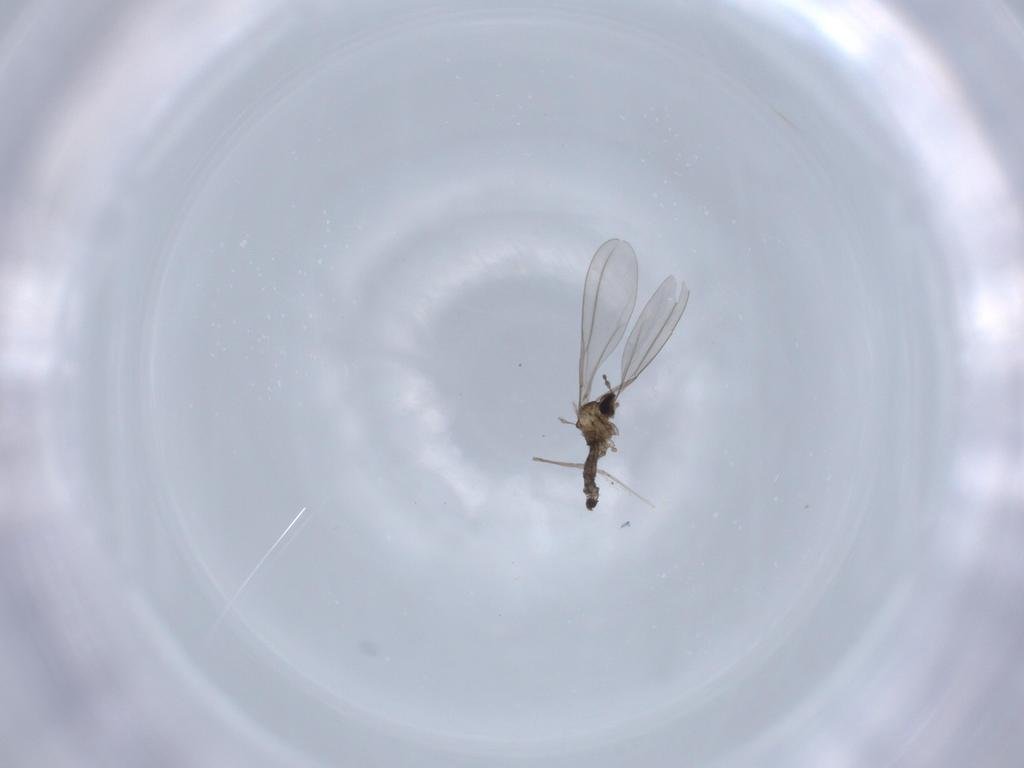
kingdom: Animalia
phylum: Arthropoda
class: Insecta
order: Diptera
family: Cecidomyiidae
